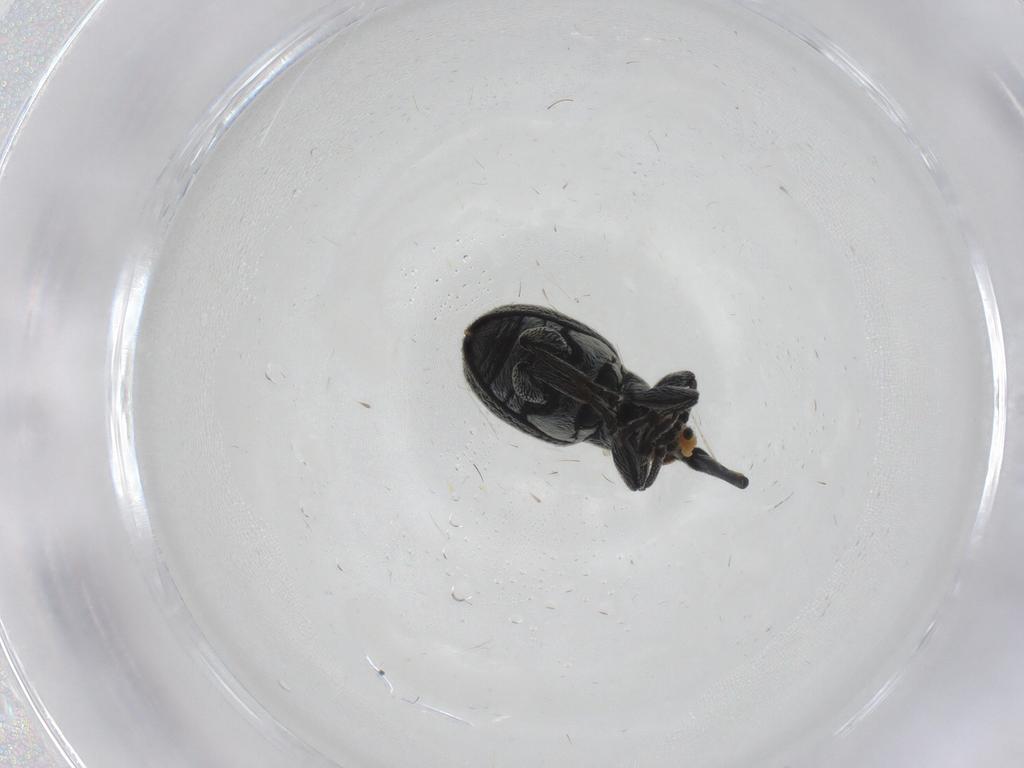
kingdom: Animalia
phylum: Arthropoda
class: Insecta
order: Coleoptera
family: Brentidae
